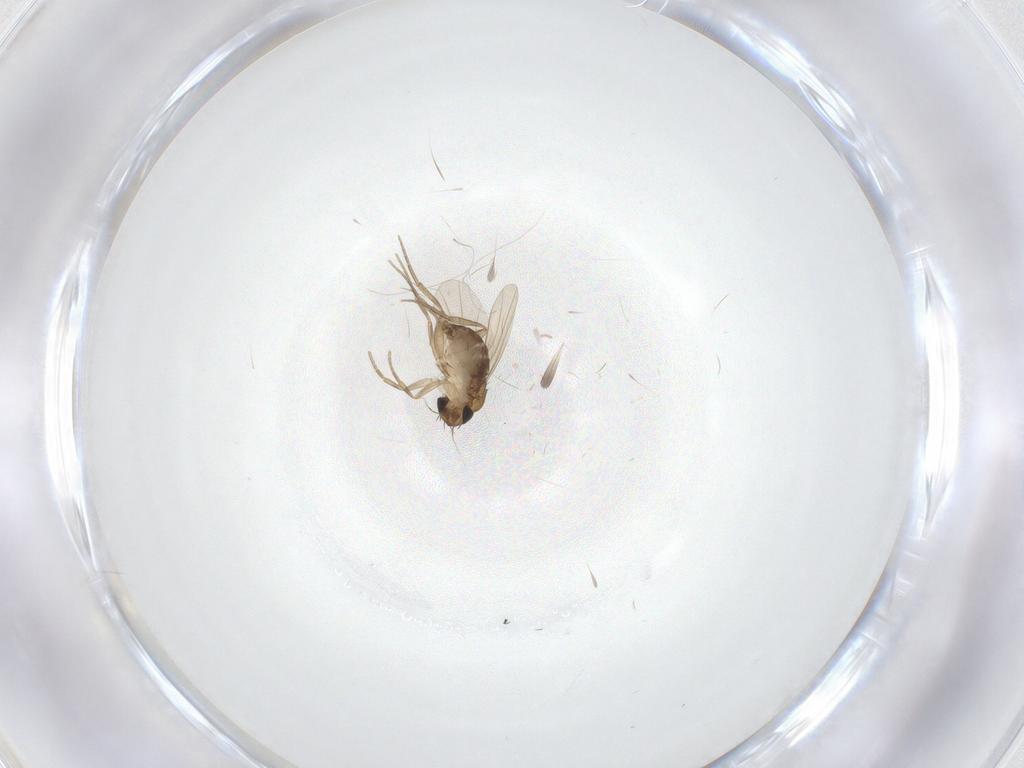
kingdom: Animalia
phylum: Arthropoda
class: Insecta
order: Diptera
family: Phoridae
